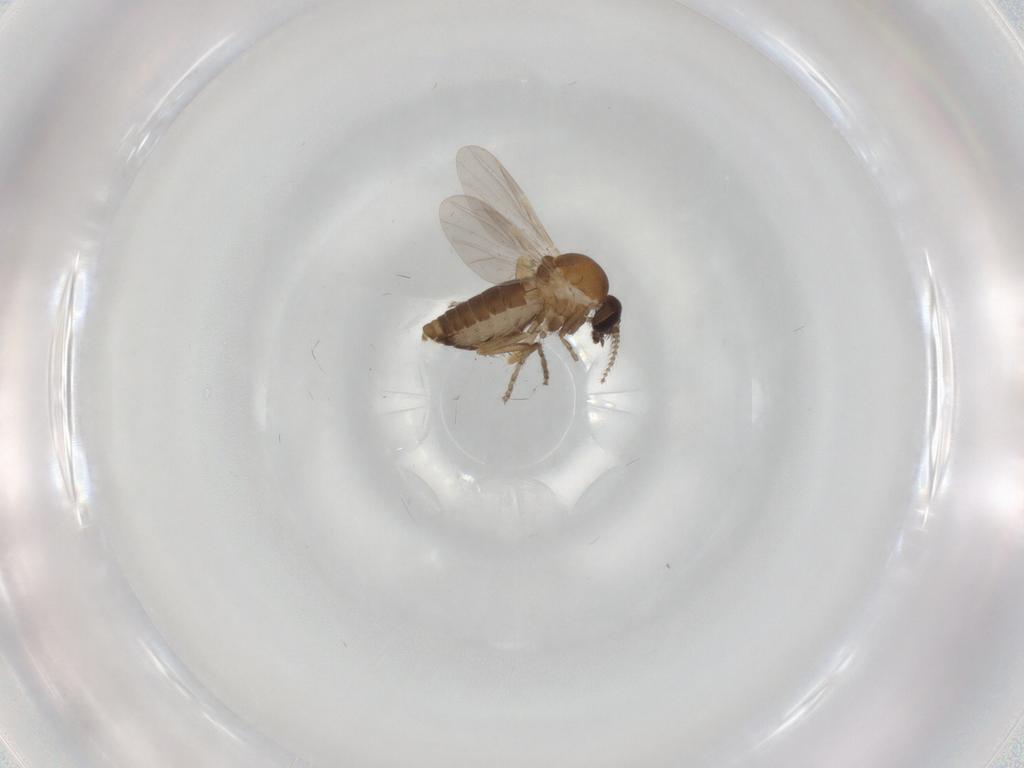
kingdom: Animalia
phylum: Arthropoda
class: Insecta
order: Diptera
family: Ceratopogonidae
